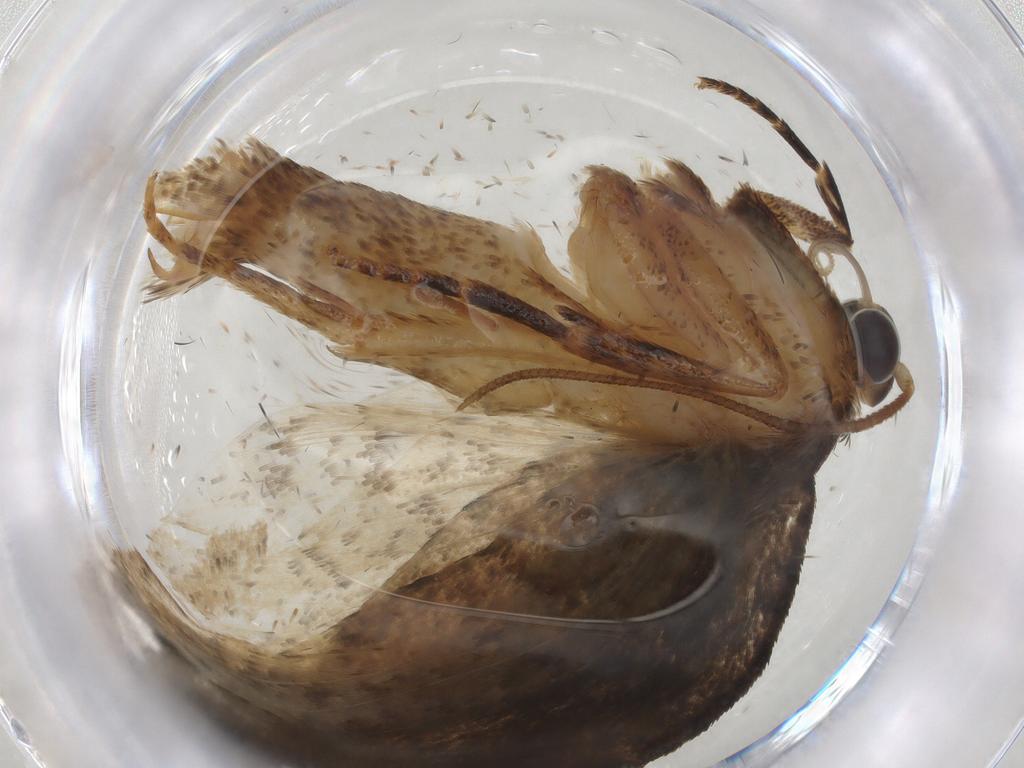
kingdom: Animalia
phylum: Arthropoda
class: Insecta
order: Lepidoptera
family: Tortricidae
